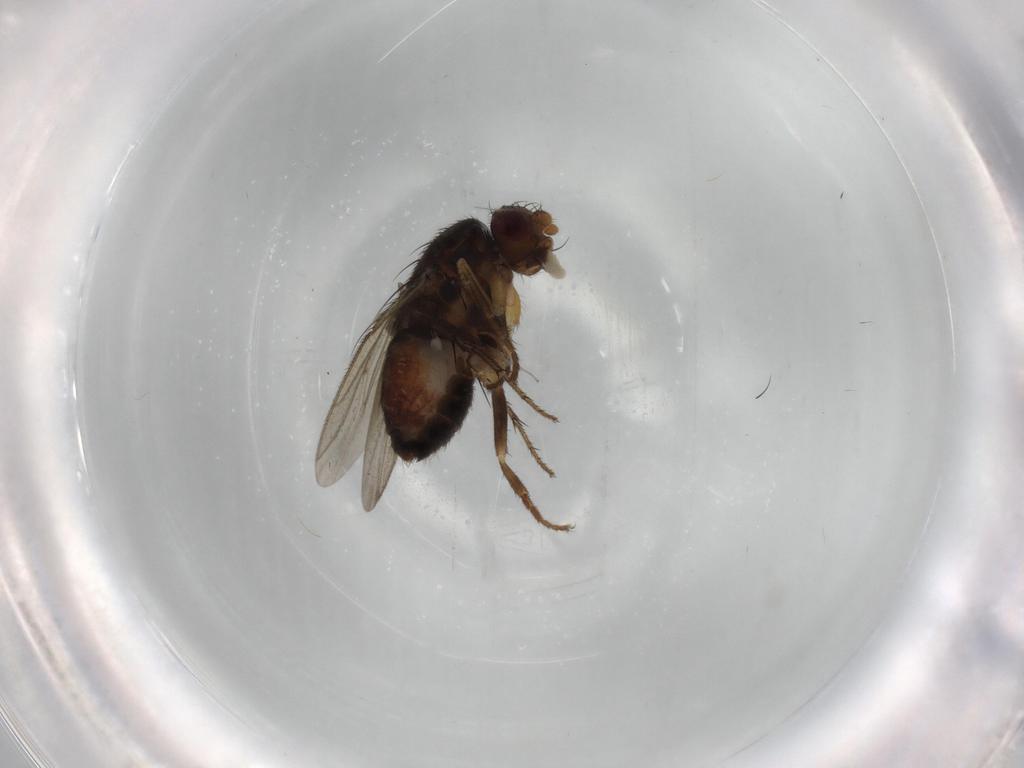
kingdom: Animalia
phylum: Arthropoda
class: Insecta
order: Diptera
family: Sphaeroceridae
